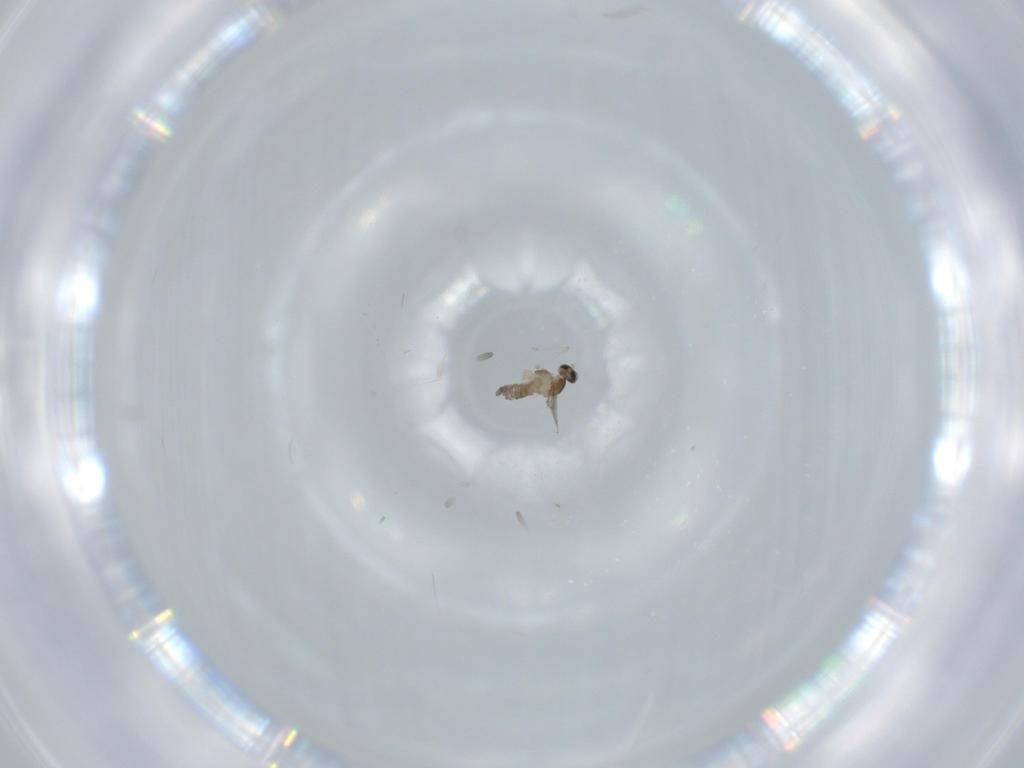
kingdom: Animalia
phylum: Arthropoda
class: Insecta
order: Diptera
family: Cecidomyiidae
